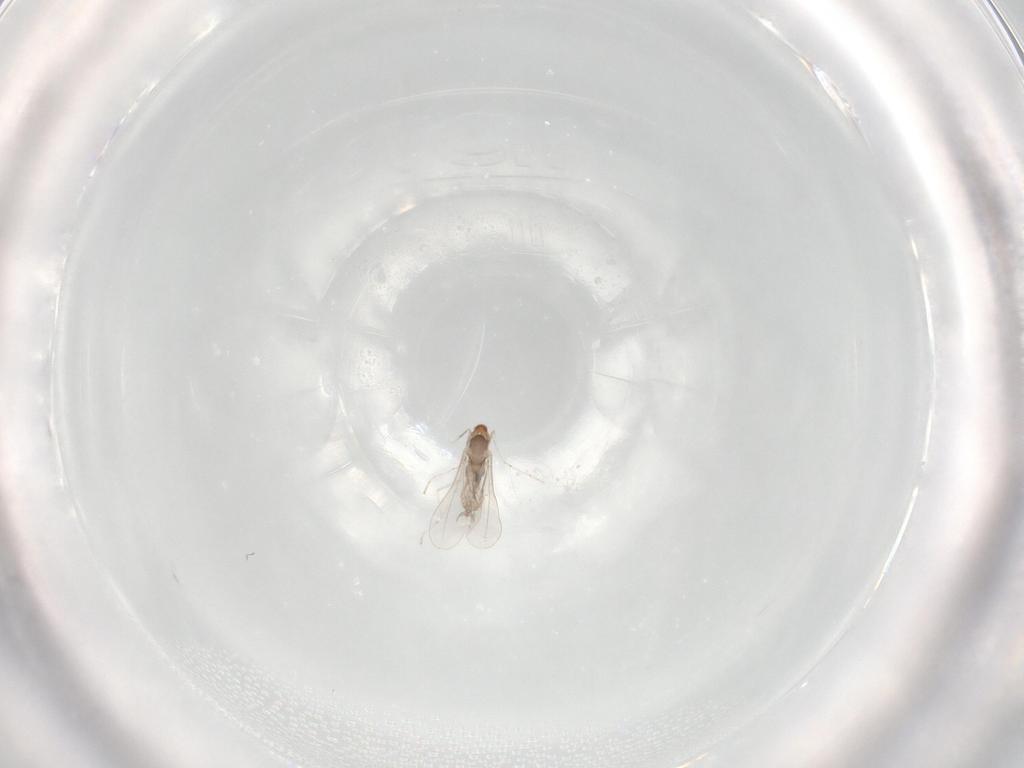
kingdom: Animalia
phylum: Arthropoda
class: Insecta
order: Diptera
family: Cecidomyiidae
